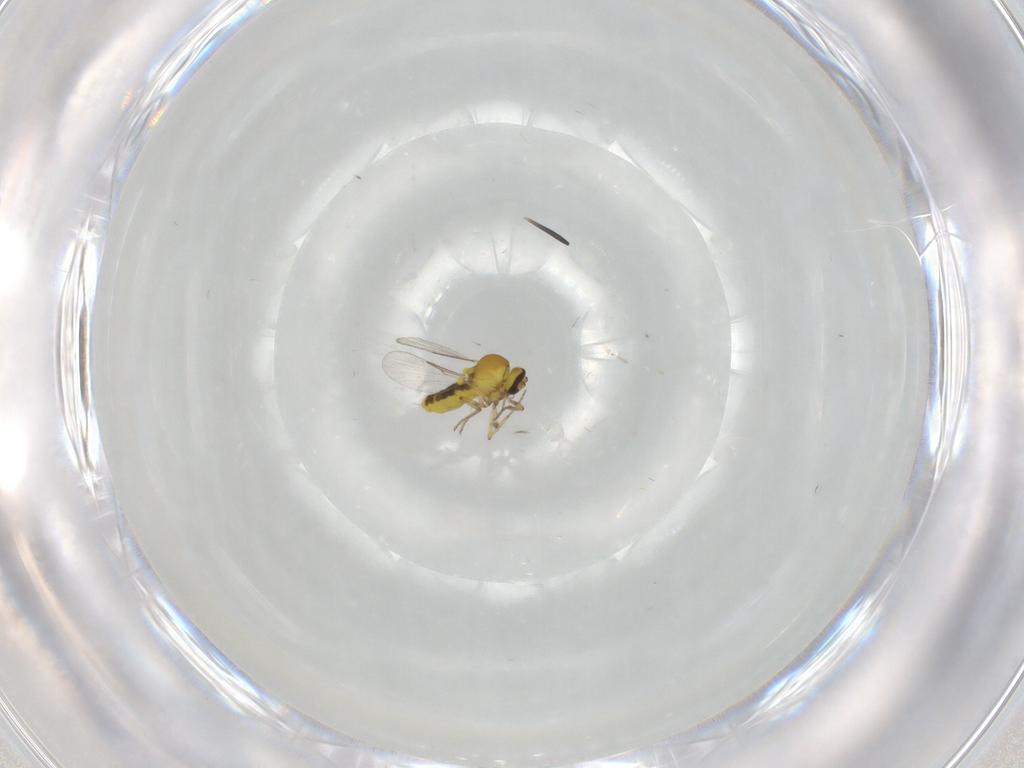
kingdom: Animalia
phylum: Arthropoda
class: Insecta
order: Diptera
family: Ceratopogonidae
